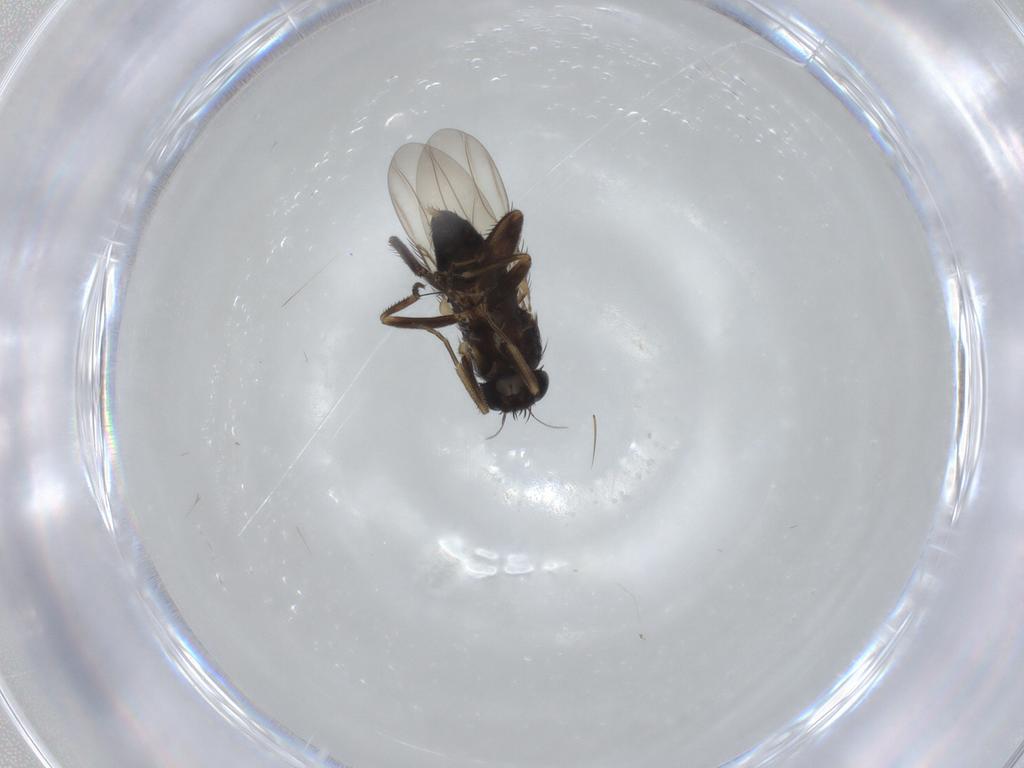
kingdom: Animalia
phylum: Arthropoda
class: Insecta
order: Diptera
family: Phoridae
